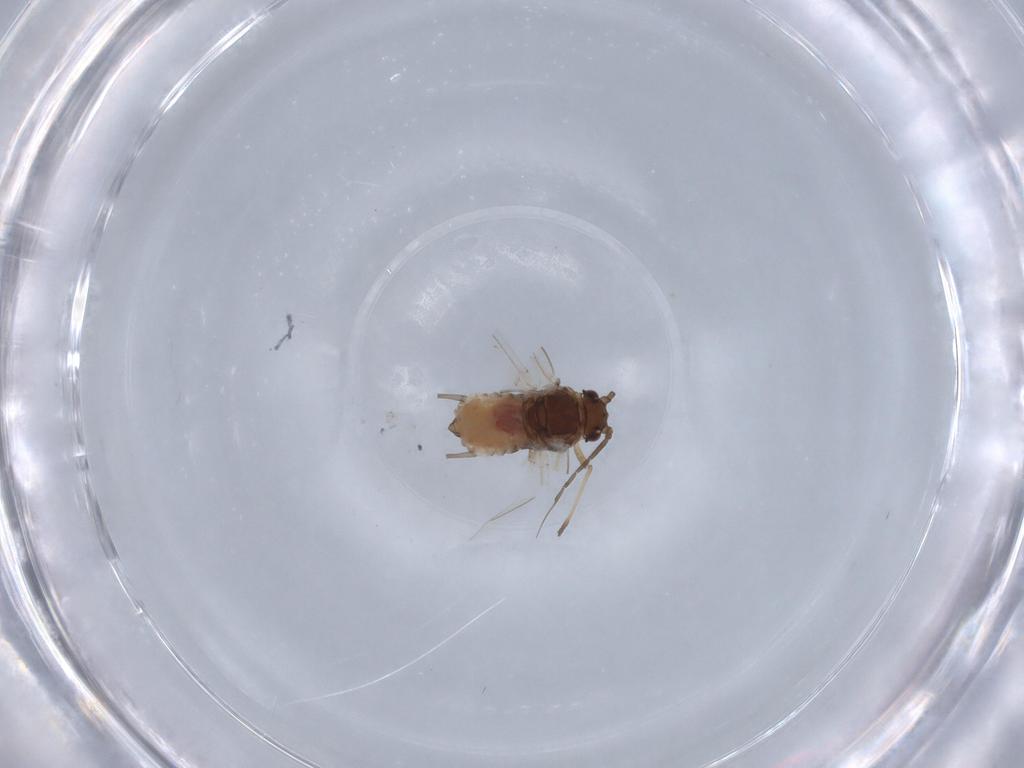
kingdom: Animalia
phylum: Arthropoda
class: Insecta
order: Hemiptera
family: Aphididae
